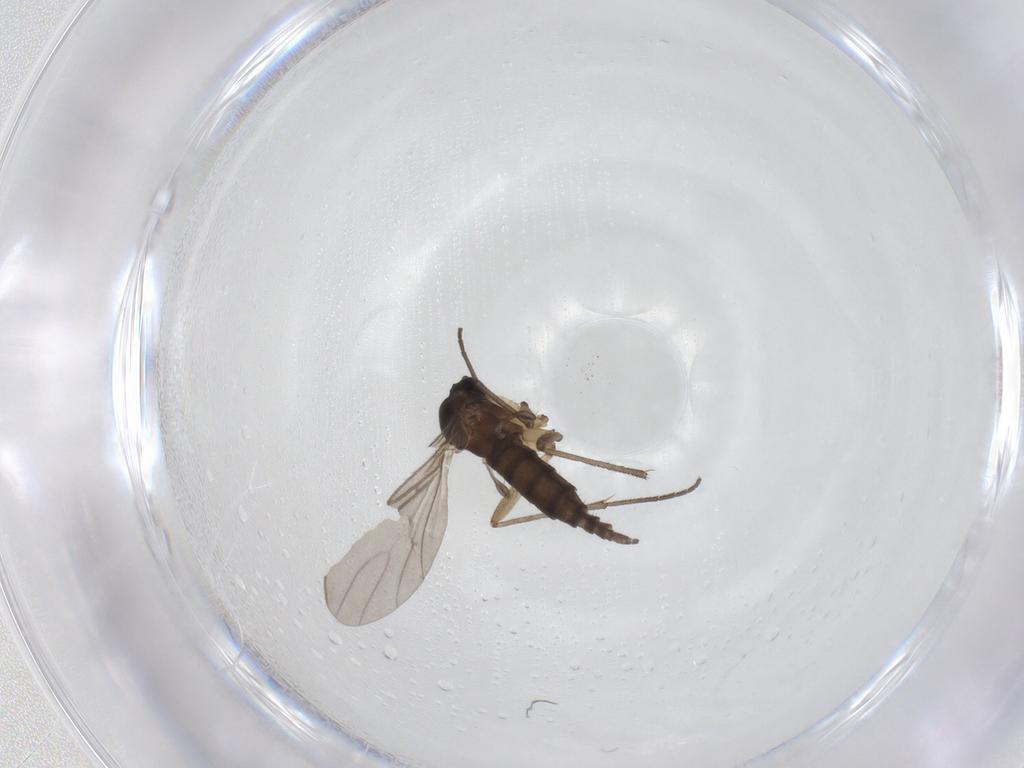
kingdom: Animalia
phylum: Arthropoda
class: Insecta
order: Diptera
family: Sciaridae
